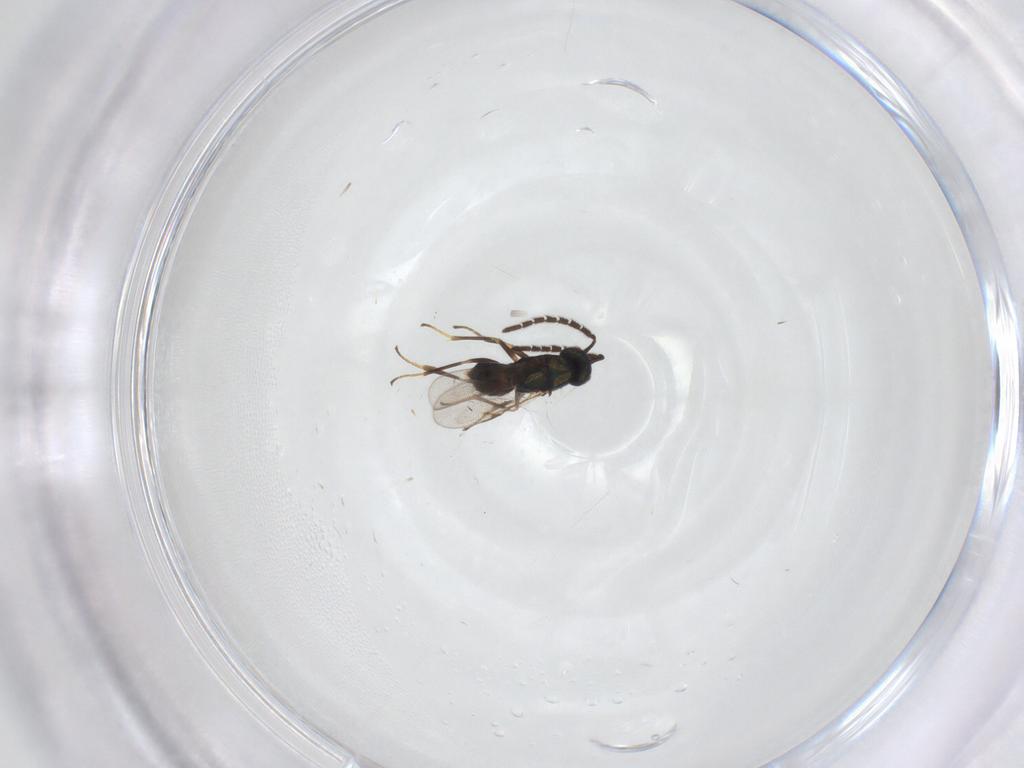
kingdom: Animalia
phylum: Arthropoda
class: Insecta
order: Hymenoptera
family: Encyrtidae
